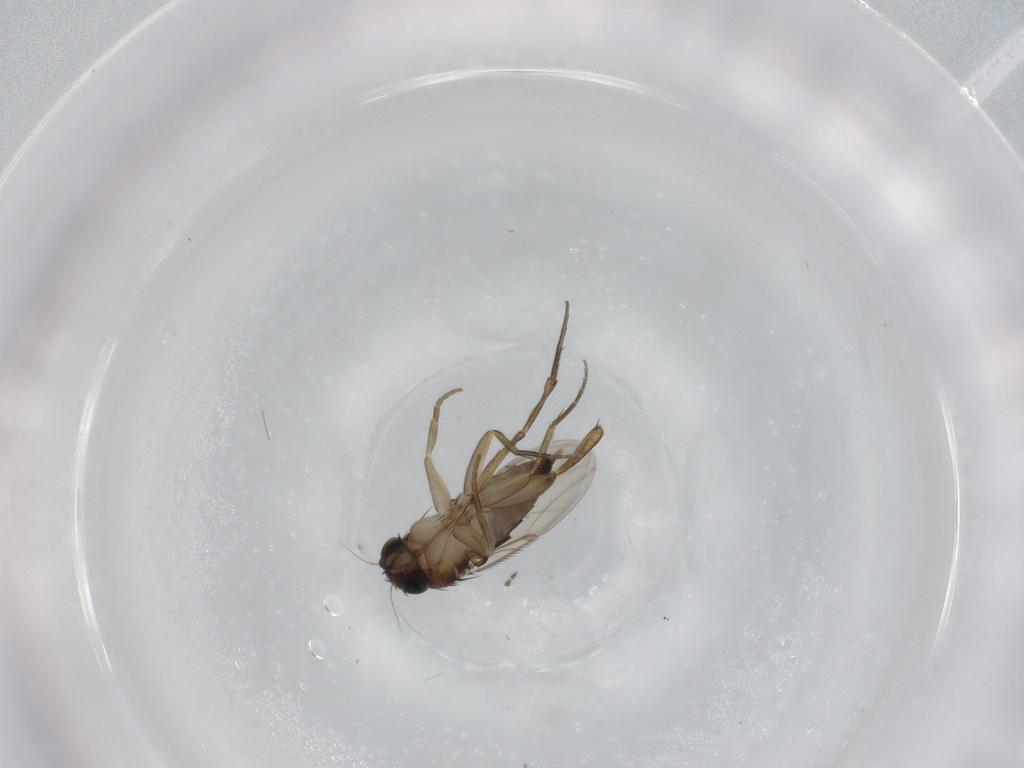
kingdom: Animalia
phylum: Arthropoda
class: Insecta
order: Diptera
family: Phoridae
